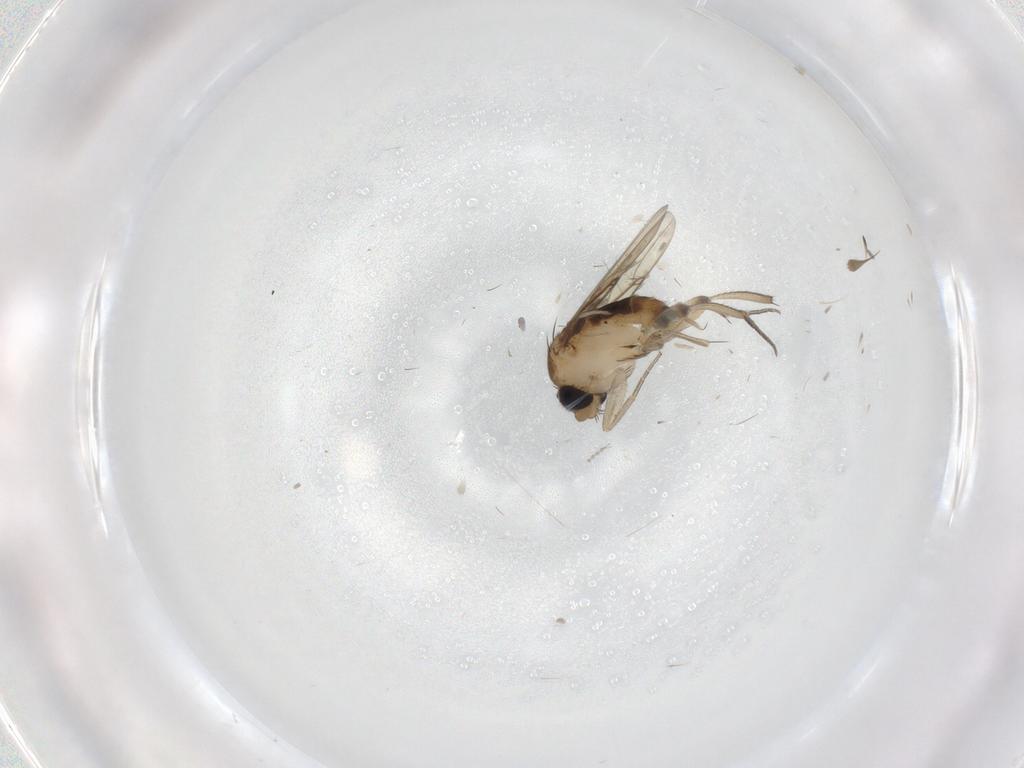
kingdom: Animalia
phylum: Arthropoda
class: Insecta
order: Diptera
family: Phoridae
